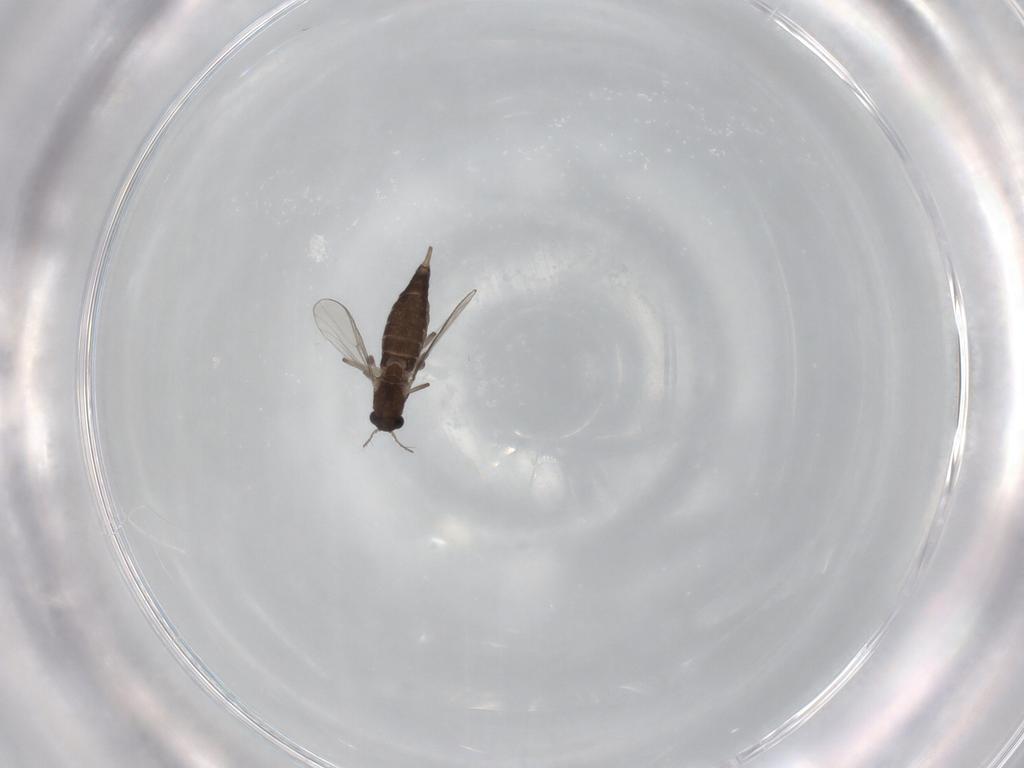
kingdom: Animalia
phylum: Arthropoda
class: Insecta
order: Diptera
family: Chironomidae
